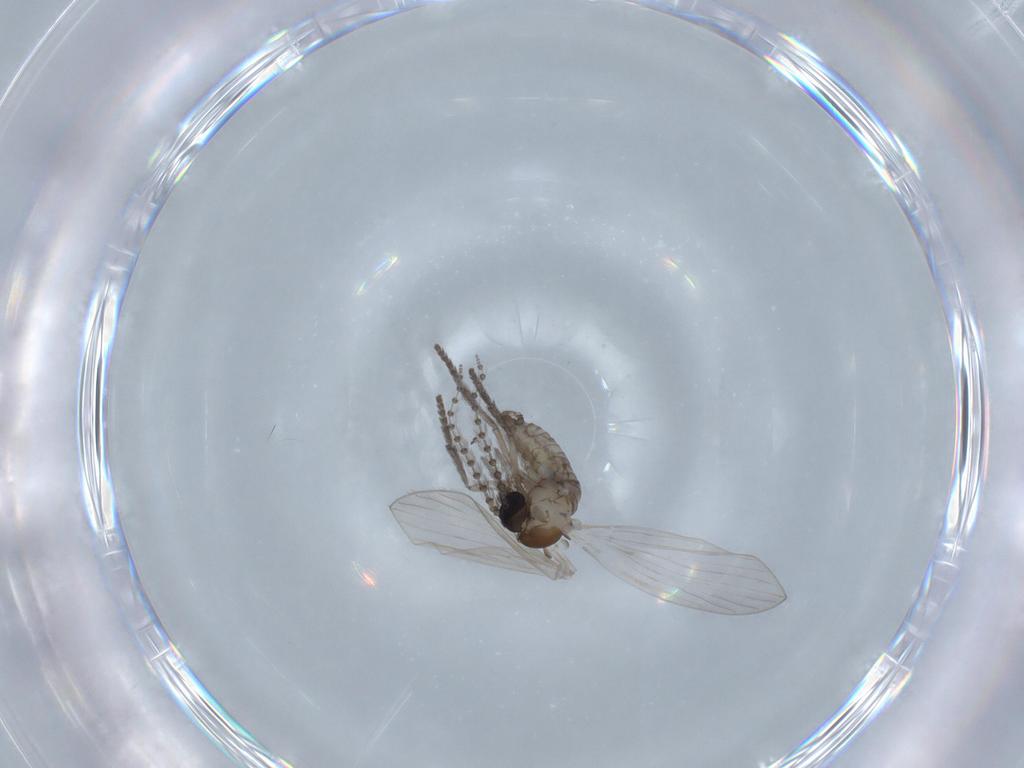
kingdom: Animalia
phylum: Arthropoda
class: Insecta
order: Diptera
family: Psychodidae
